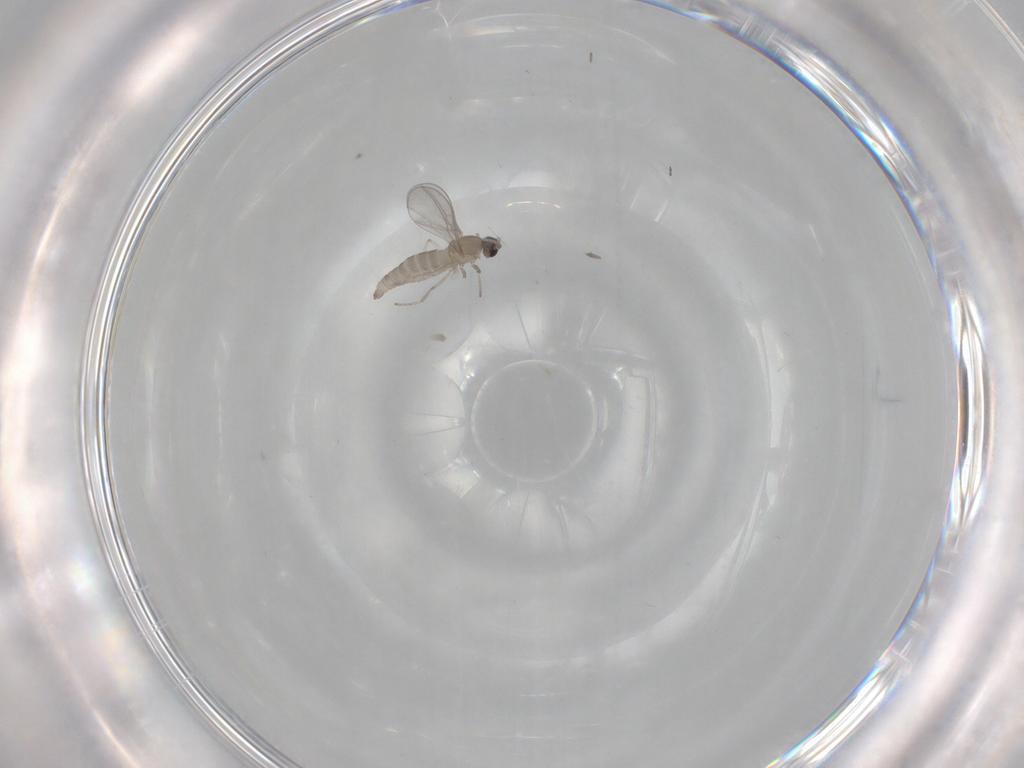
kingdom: Animalia
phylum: Arthropoda
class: Insecta
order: Diptera
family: Cecidomyiidae
